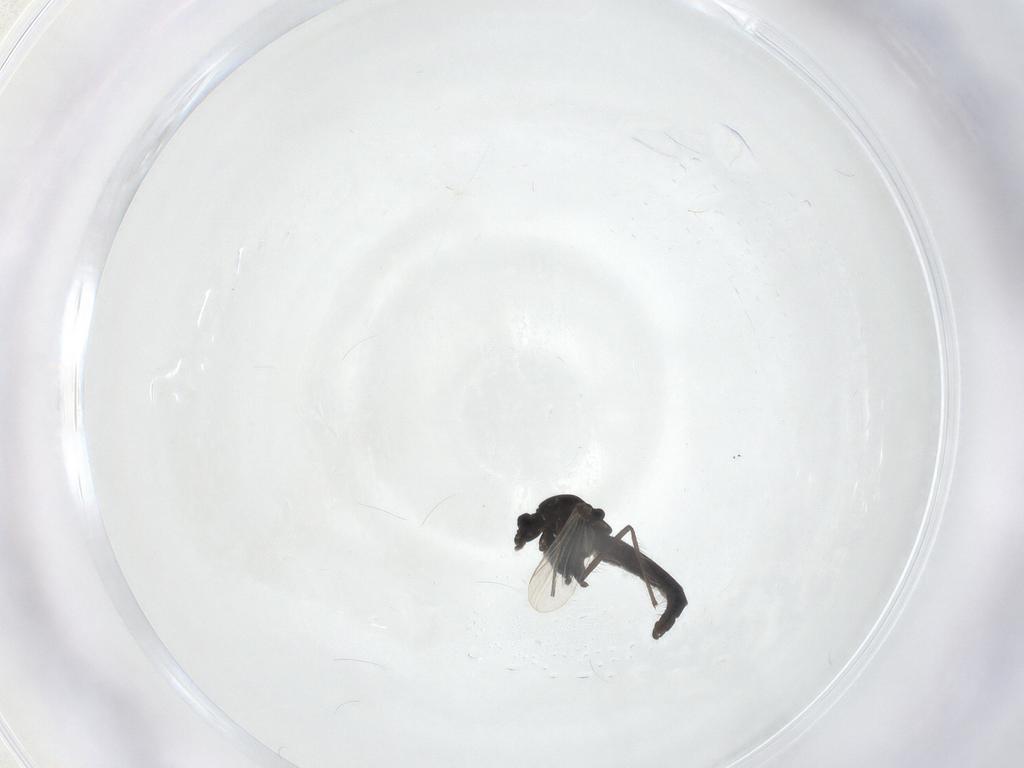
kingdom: Animalia
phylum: Arthropoda
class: Insecta
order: Diptera
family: Chironomidae
